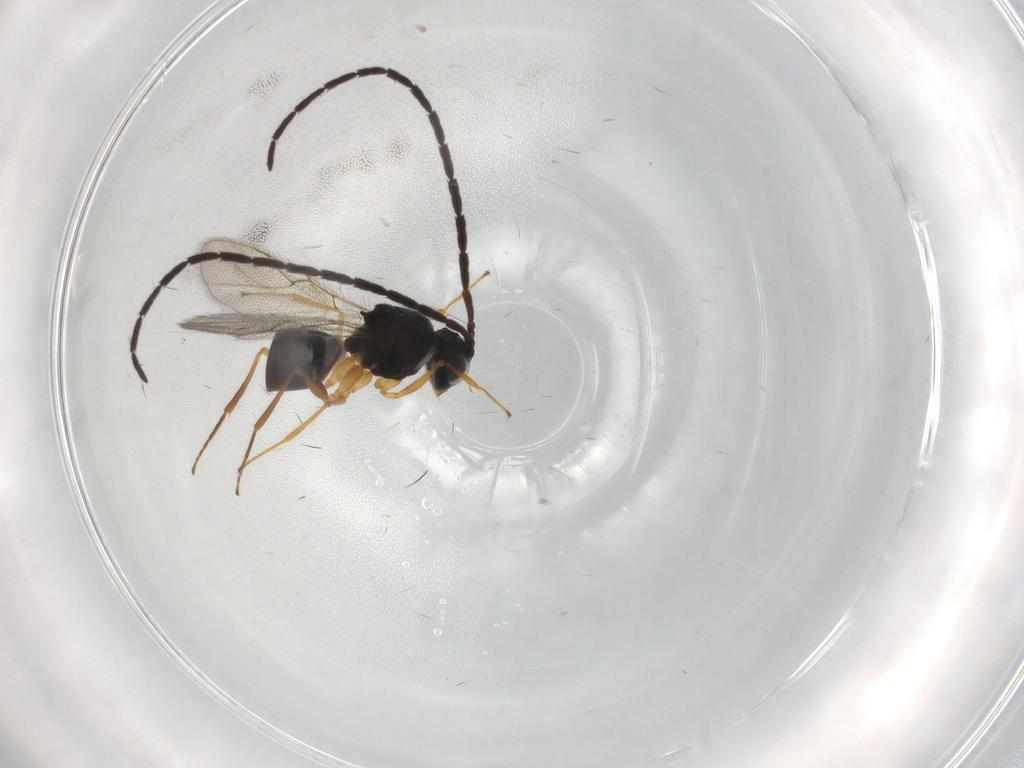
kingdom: Animalia
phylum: Arthropoda
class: Insecta
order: Hymenoptera
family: Figitidae
